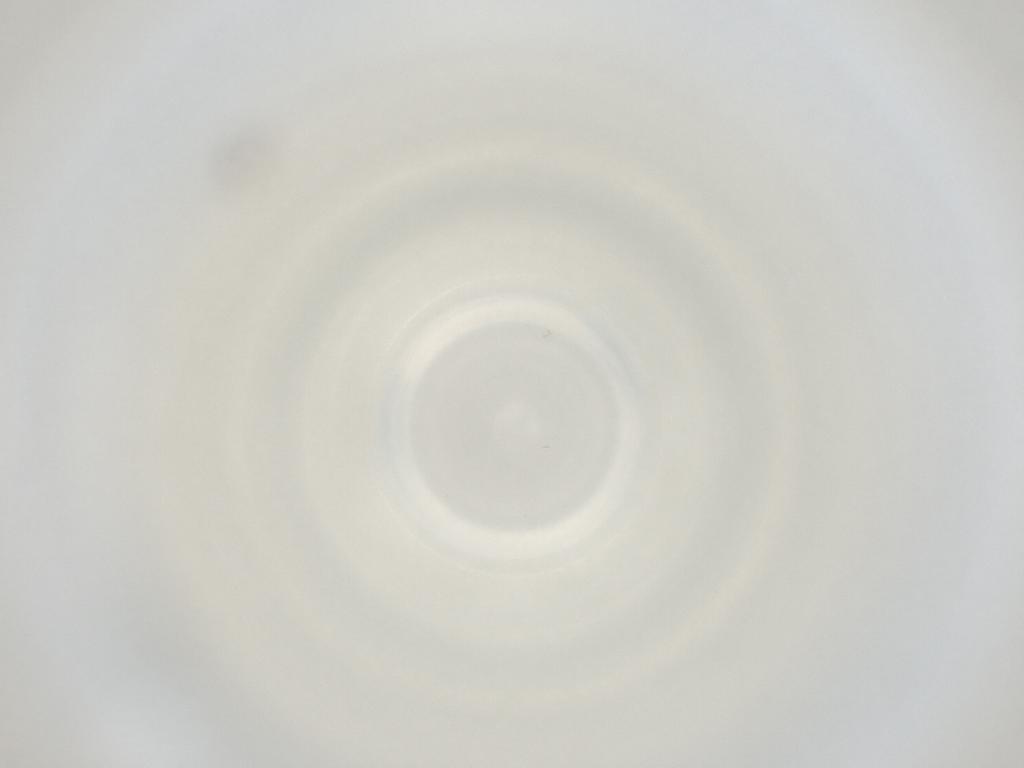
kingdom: Animalia
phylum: Arthropoda
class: Insecta
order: Diptera
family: Cecidomyiidae
